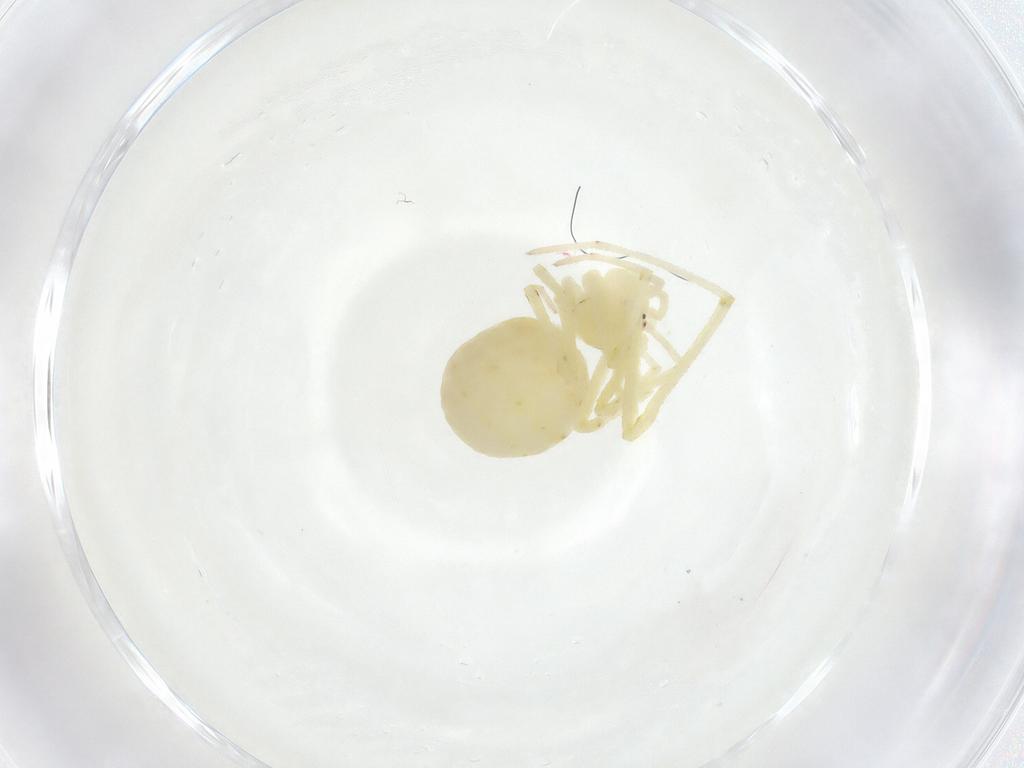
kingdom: Animalia
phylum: Arthropoda
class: Arachnida
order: Araneae
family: Theridiidae
